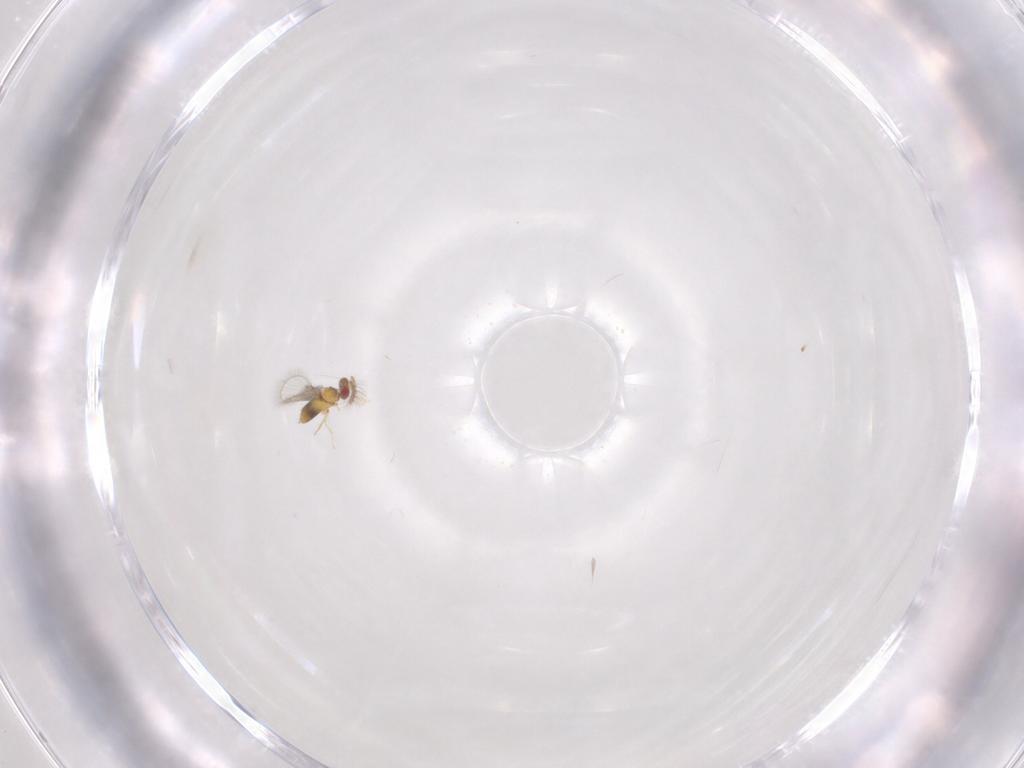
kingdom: Animalia
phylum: Arthropoda
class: Insecta
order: Hymenoptera
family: Trichogrammatidae
